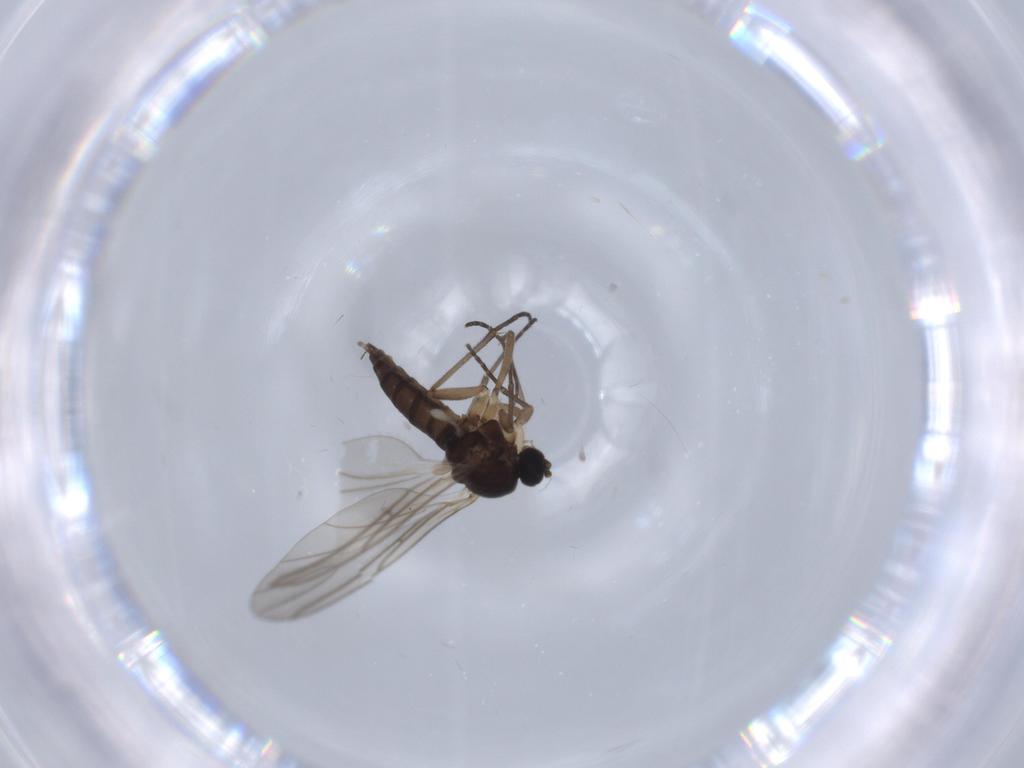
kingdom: Animalia
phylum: Arthropoda
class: Insecta
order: Diptera
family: Sciaridae
